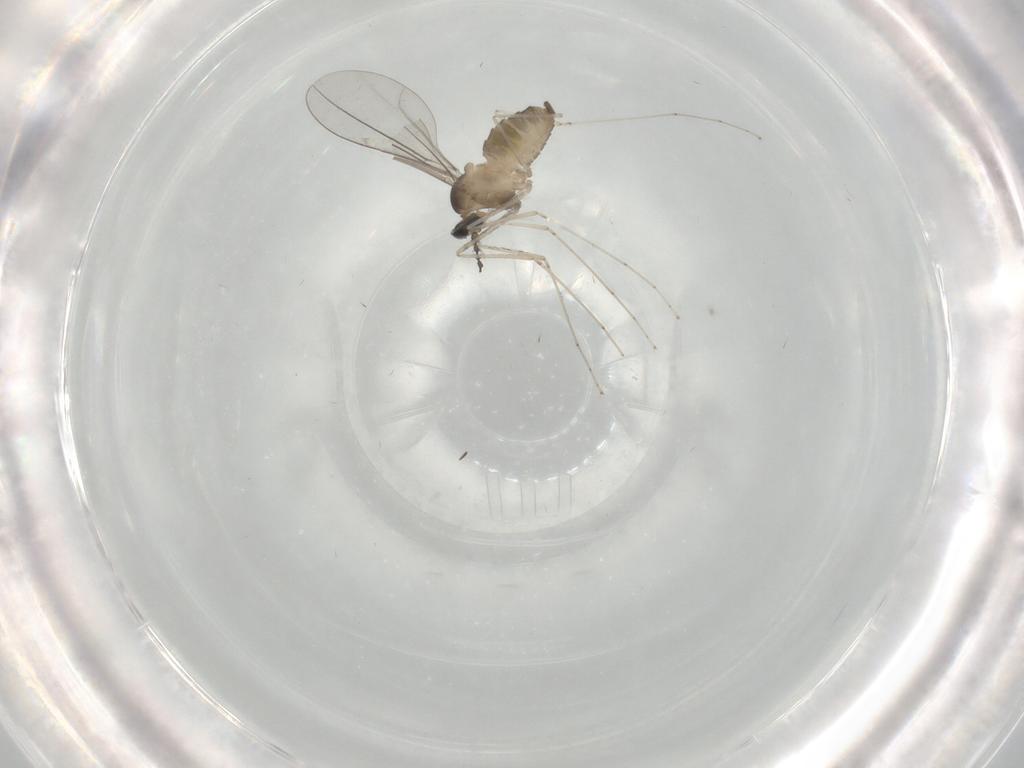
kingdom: Animalia
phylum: Arthropoda
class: Insecta
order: Diptera
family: Cecidomyiidae
